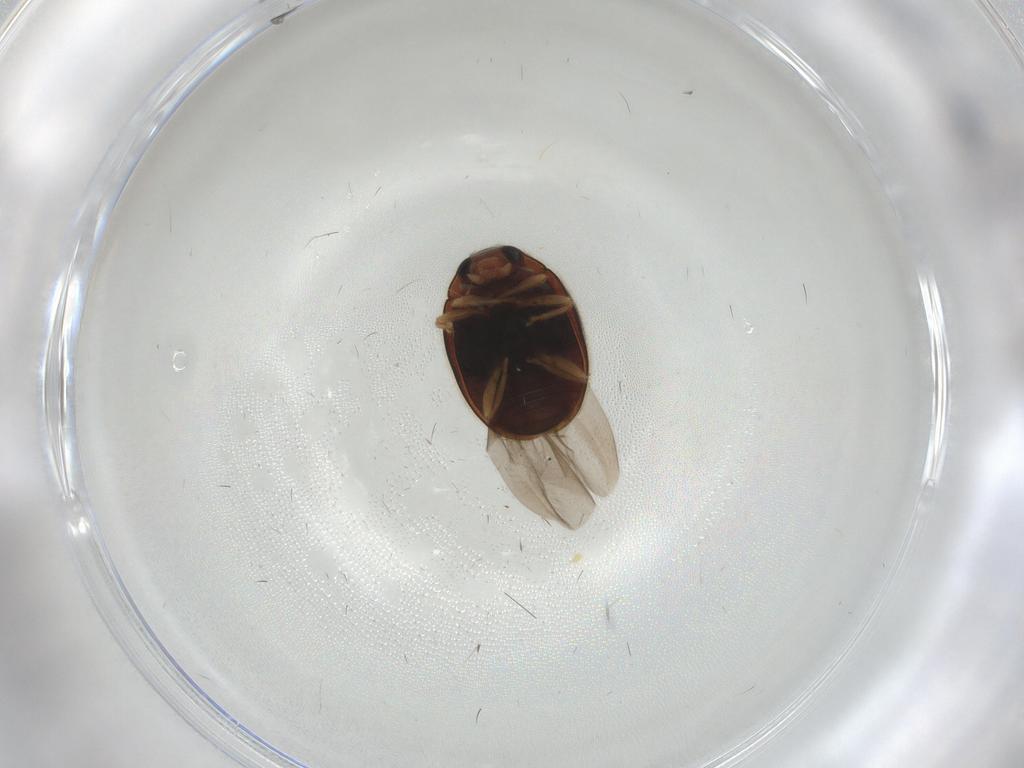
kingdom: Animalia
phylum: Arthropoda
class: Insecta
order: Coleoptera
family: Coccinellidae
